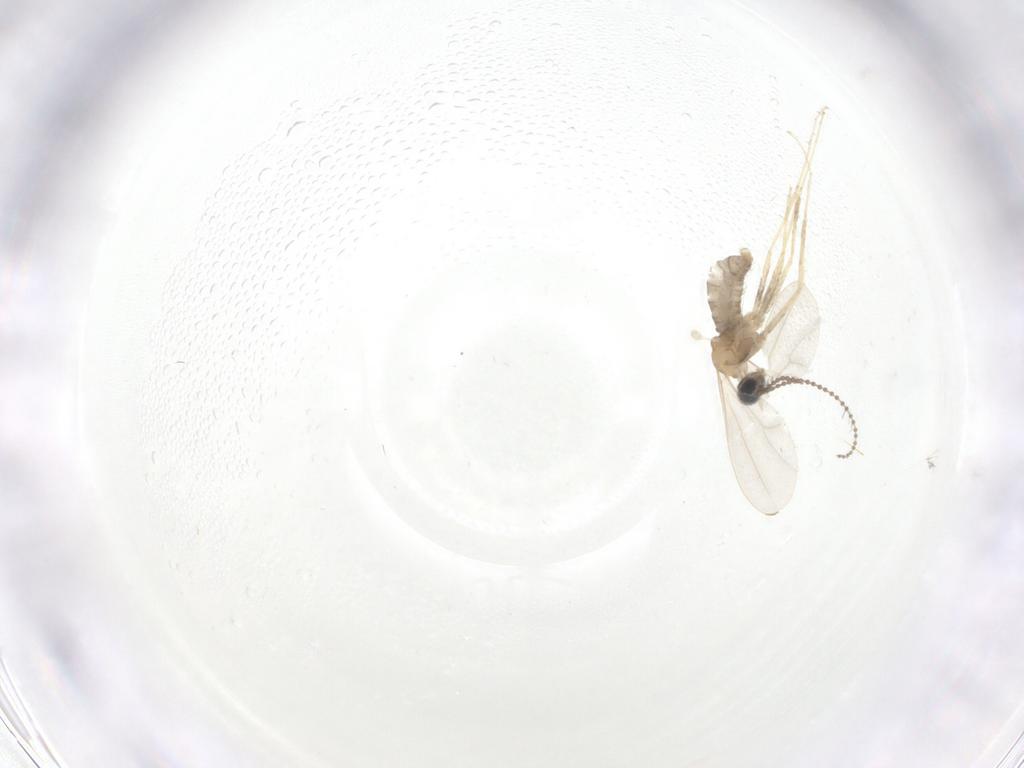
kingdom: Animalia
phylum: Arthropoda
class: Insecta
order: Diptera
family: Cecidomyiidae
